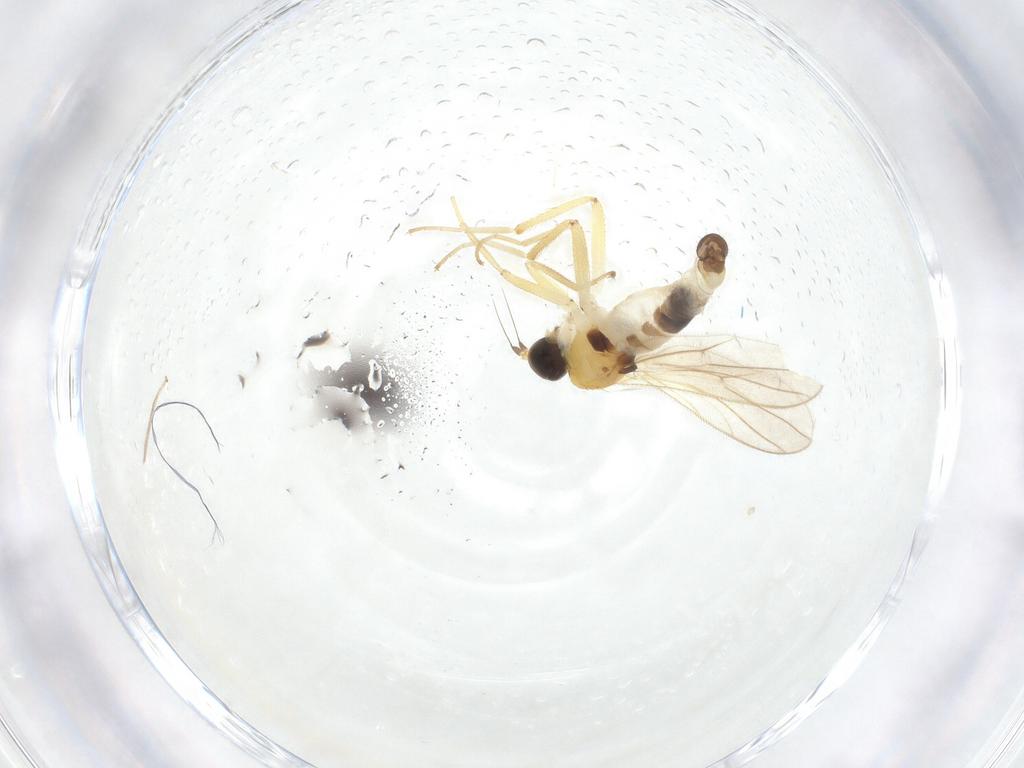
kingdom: Animalia
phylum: Arthropoda
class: Insecta
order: Diptera
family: Hybotidae
